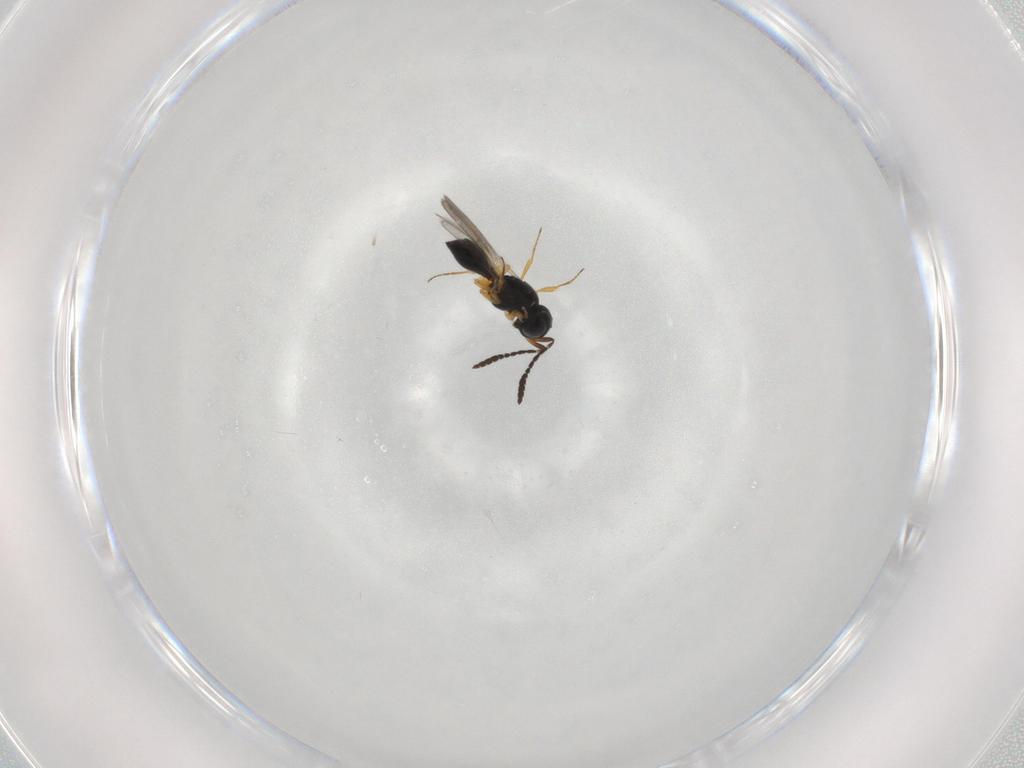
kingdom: Animalia
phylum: Arthropoda
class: Insecta
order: Hymenoptera
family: Scelionidae
